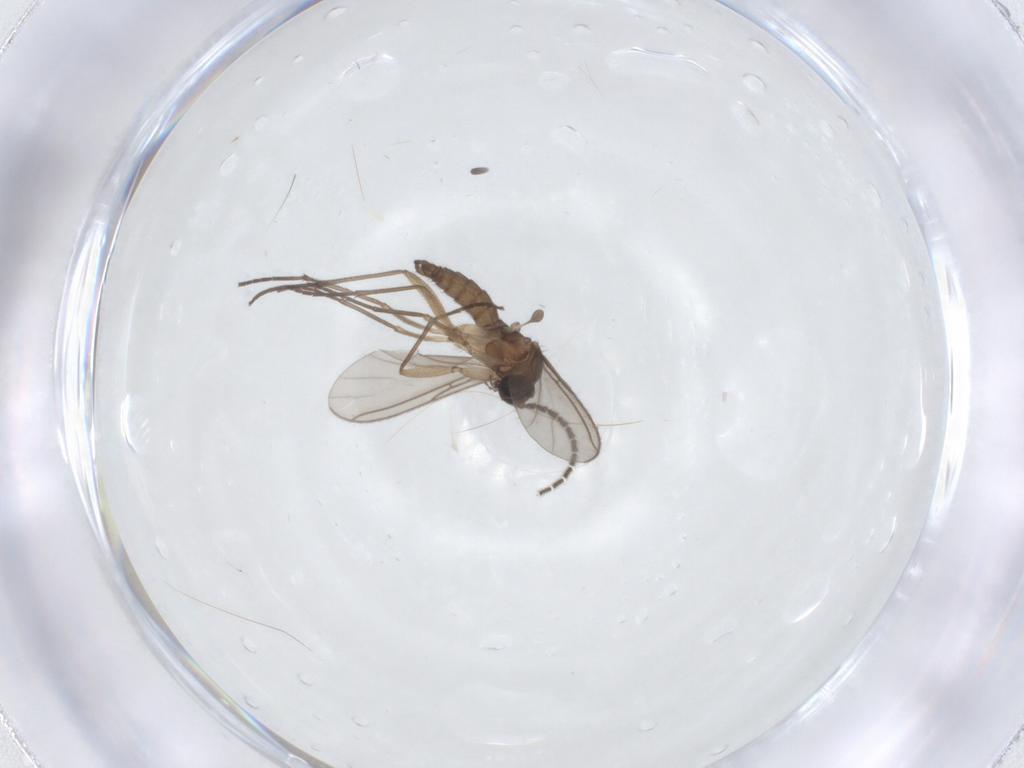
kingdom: Animalia
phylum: Arthropoda
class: Insecta
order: Diptera
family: Sciaridae
